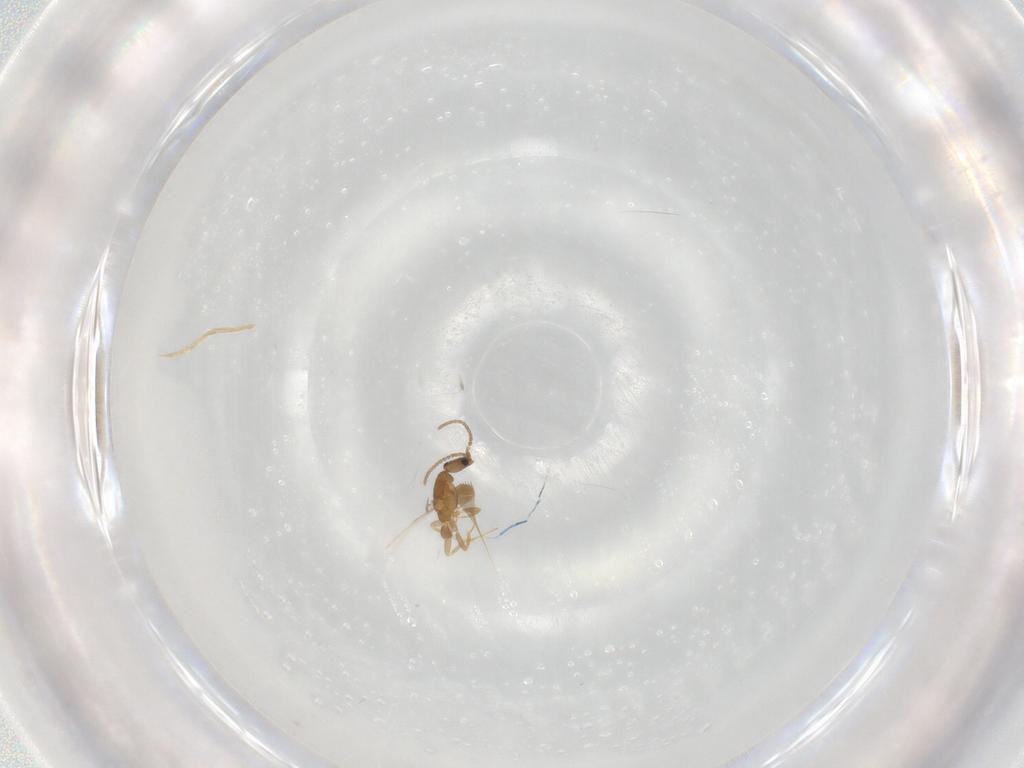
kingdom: Animalia
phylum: Arthropoda
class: Insecta
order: Hymenoptera
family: Formicidae
